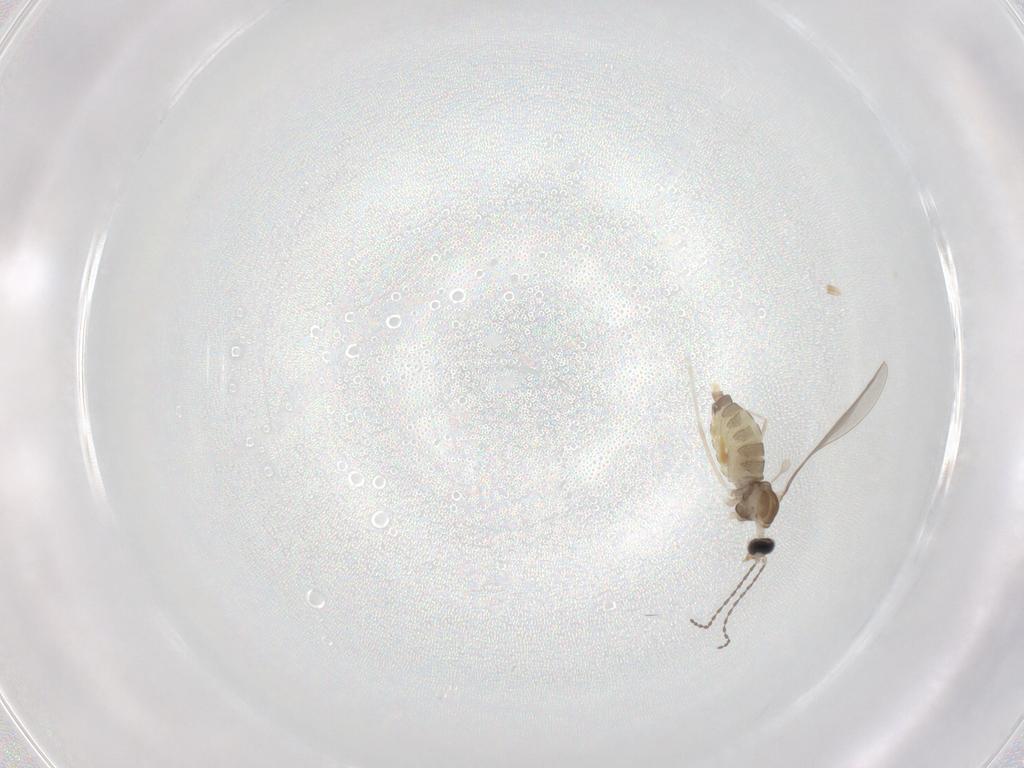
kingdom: Animalia
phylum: Arthropoda
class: Insecta
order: Diptera
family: Cecidomyiidae
